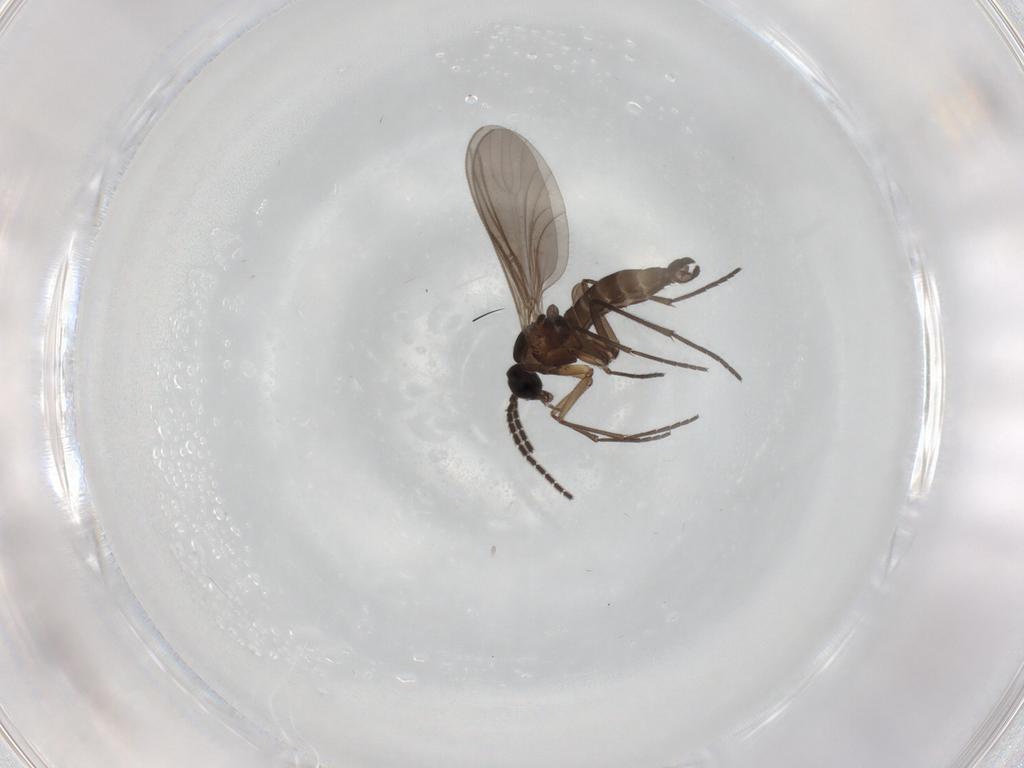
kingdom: Animalia
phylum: Arthropoda
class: Insecta
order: Diptera
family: Sciaridae
